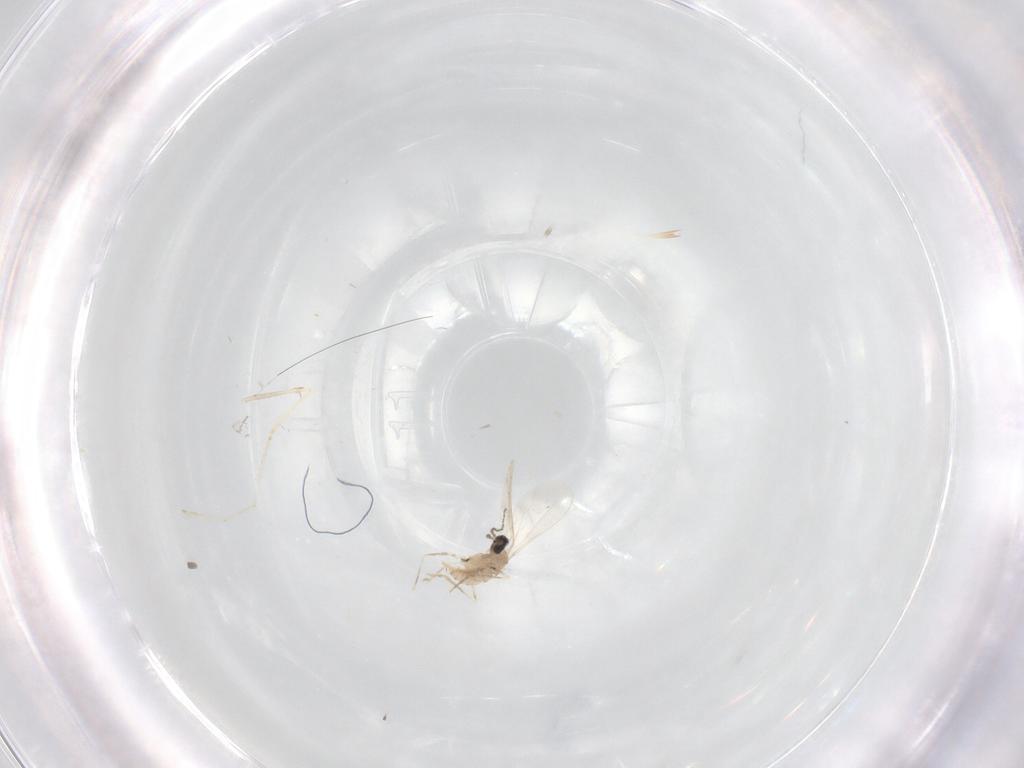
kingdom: Animalia
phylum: Arthropoda
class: Insecta
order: Diptera
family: Cecidomyiidae
